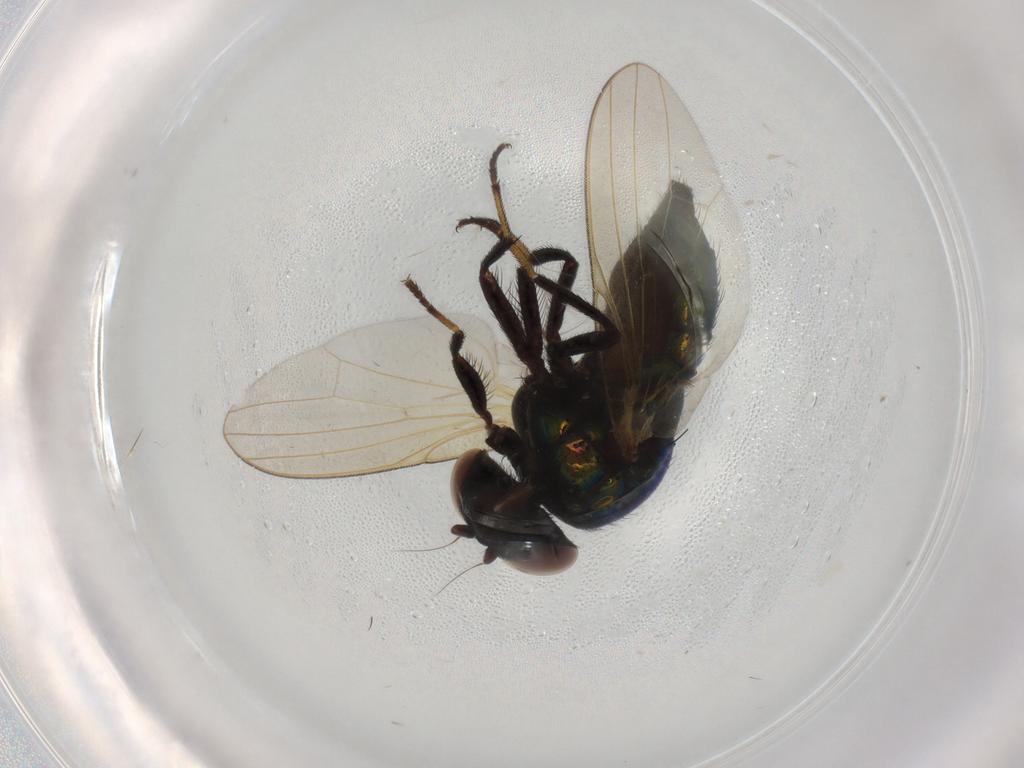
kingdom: Animalia
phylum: Arthropoda
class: Insecta
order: Diptera
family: Lonchaeidae
